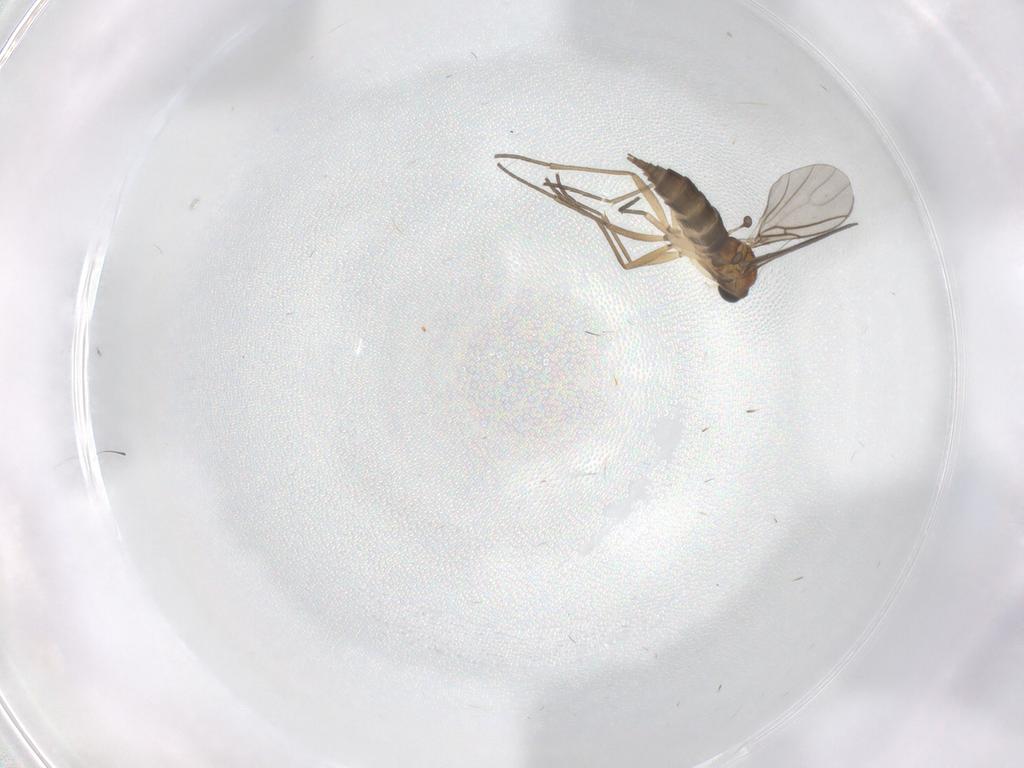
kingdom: Animalia
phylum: Arthropoda
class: Insecta
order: Diptera
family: Sciaridae
